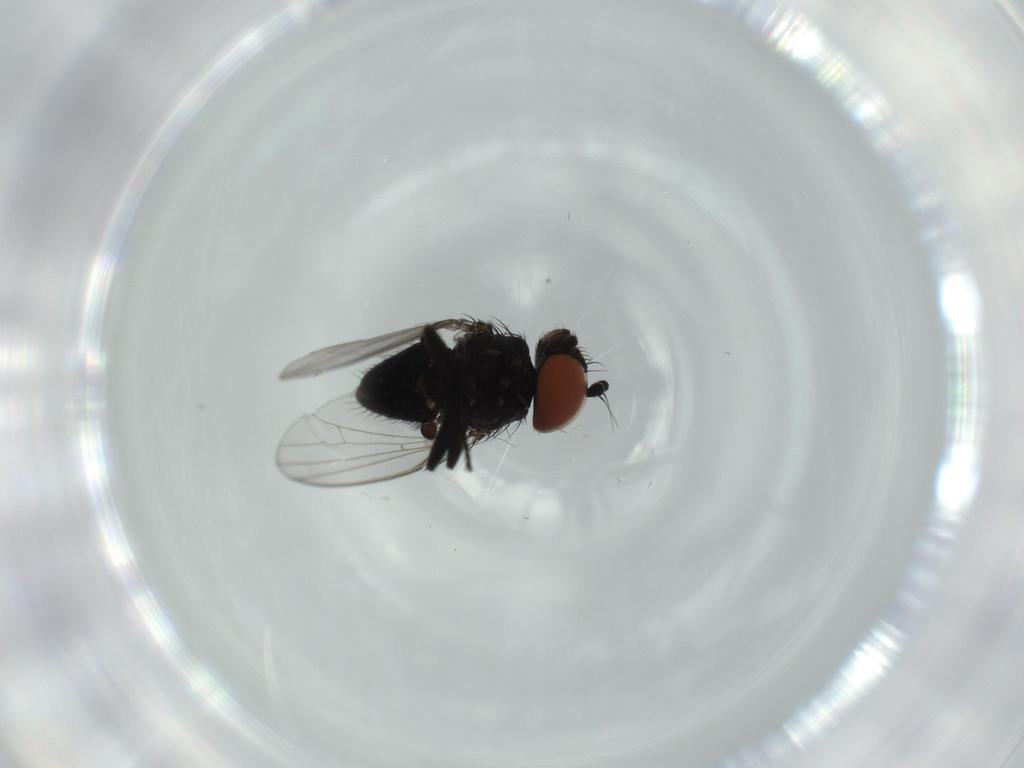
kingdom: Animalia
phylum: Arthropoda
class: Insecta
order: Diptera
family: Milichiidae
